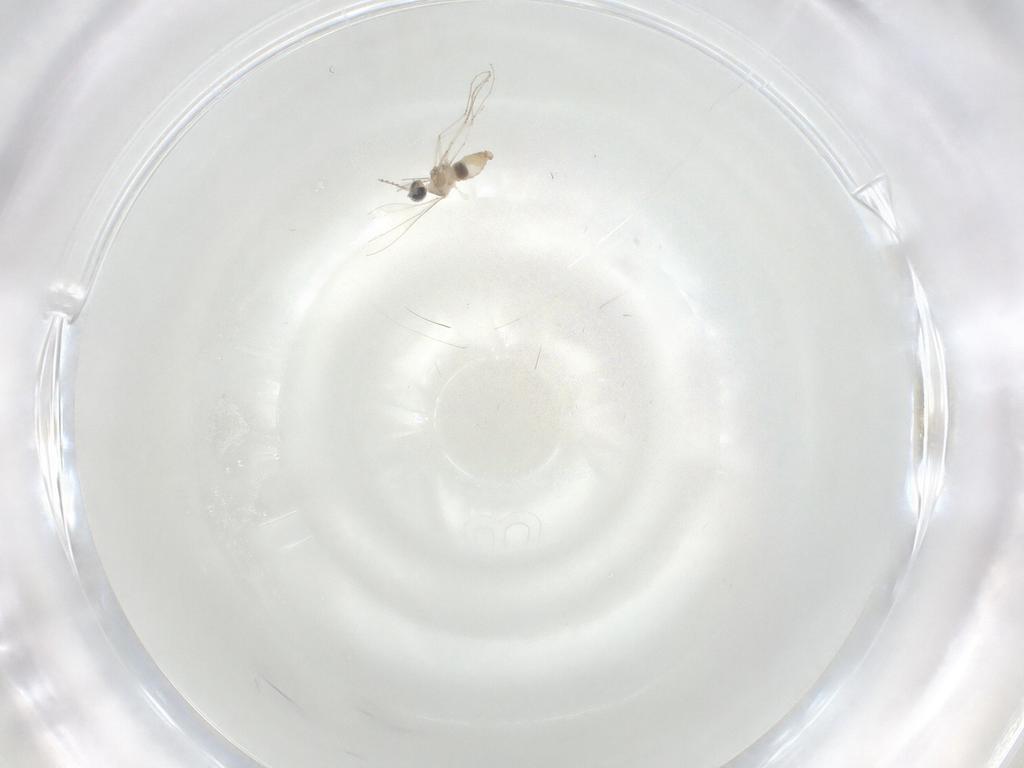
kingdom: Animalia
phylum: Arthropoda
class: Insecta
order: Diptera
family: Cecidomyiidae
